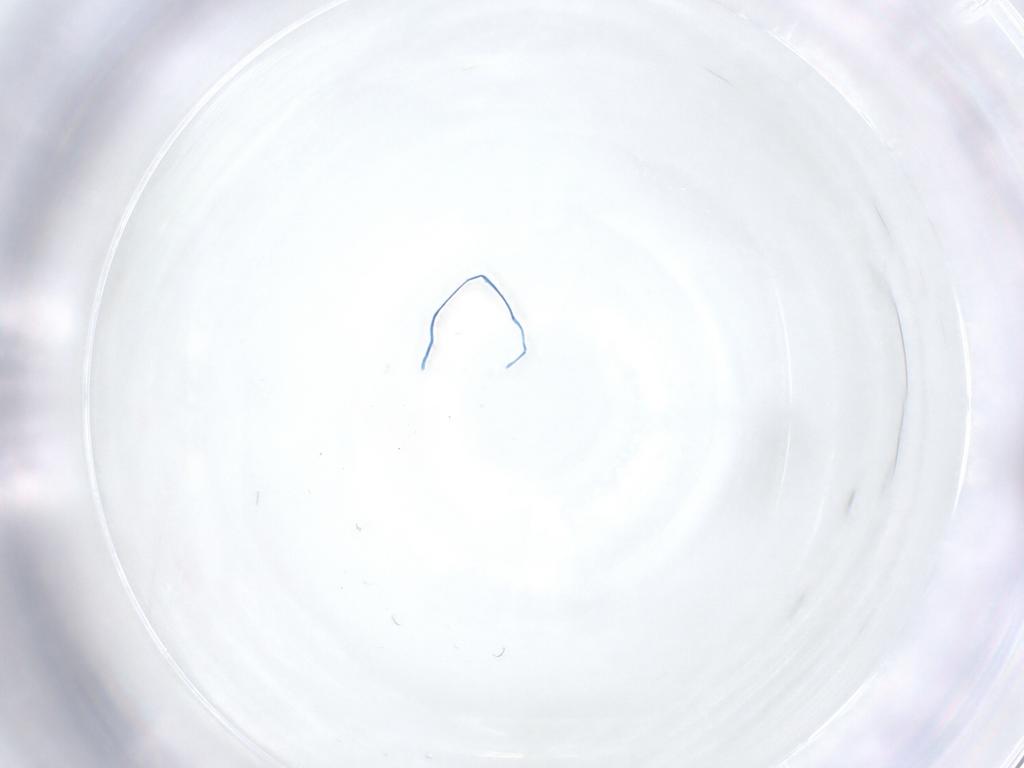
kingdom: Animalia
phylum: Arthropoda
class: Insecta
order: Hemiptera
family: Cicadellidae
